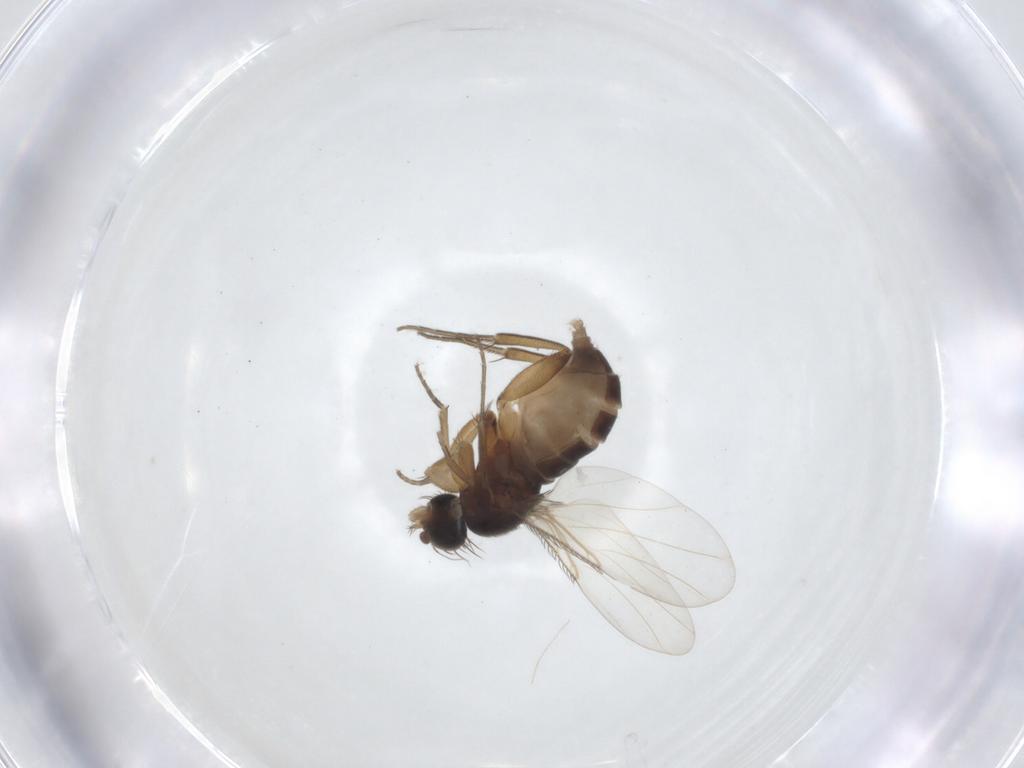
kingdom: Animalia
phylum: Arthropoda
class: Insecta
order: Diptera
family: Phoridae
